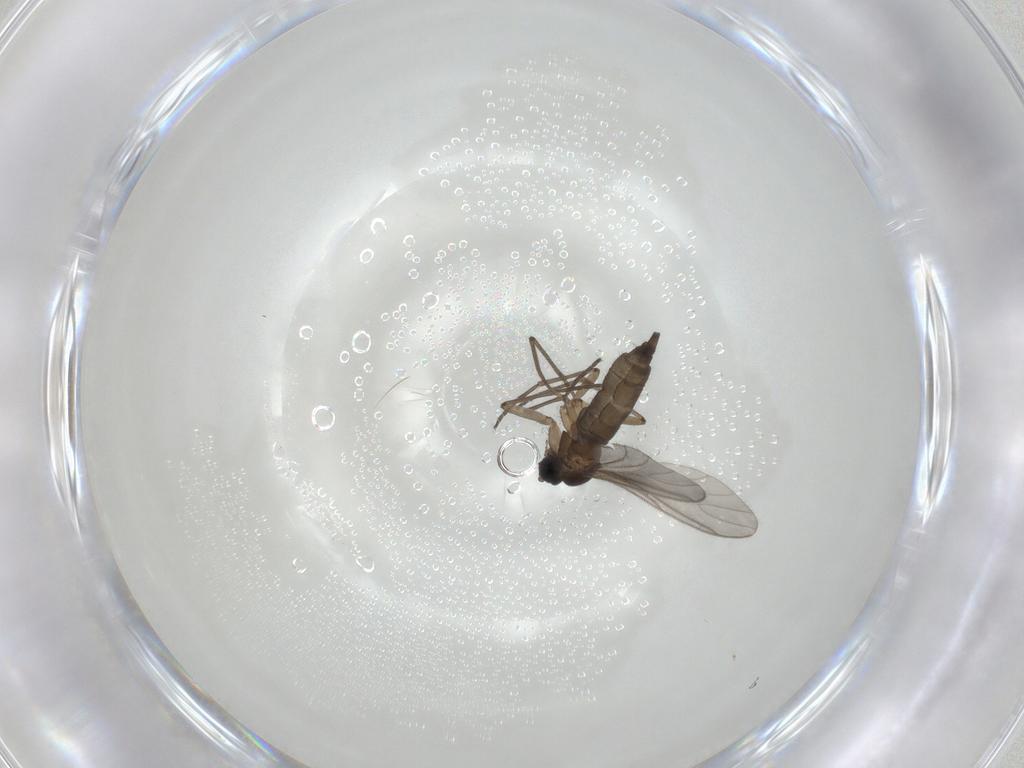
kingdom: Animalia
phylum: Arthropoda
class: Insecta
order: Diptera
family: Sciaridae
